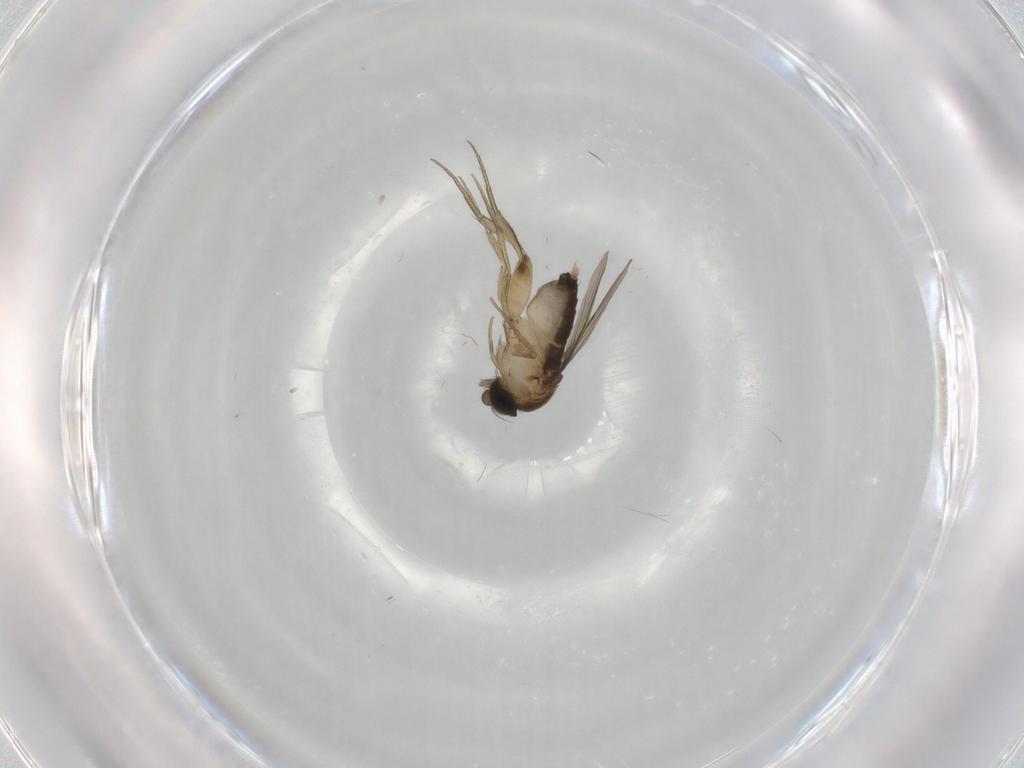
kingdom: Animalia
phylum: Arthropoda
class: Insecta
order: Diptera
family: Phoridae
